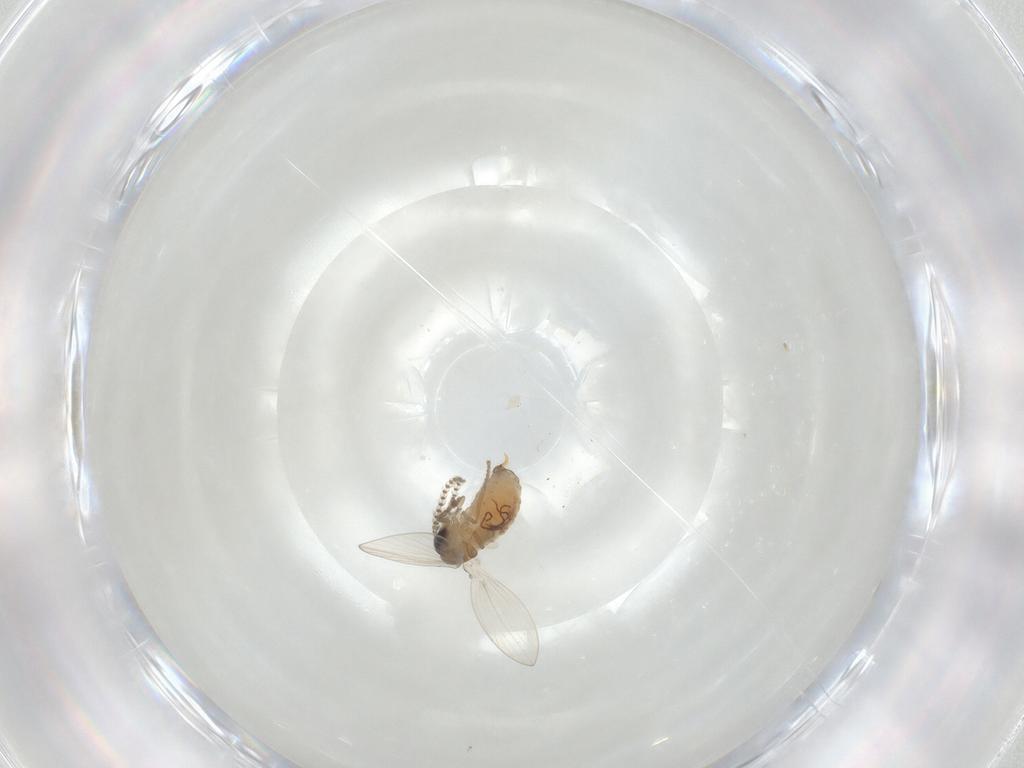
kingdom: Animalia
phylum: Arthropoda
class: Insecta
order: Diptera
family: Psychodidae
